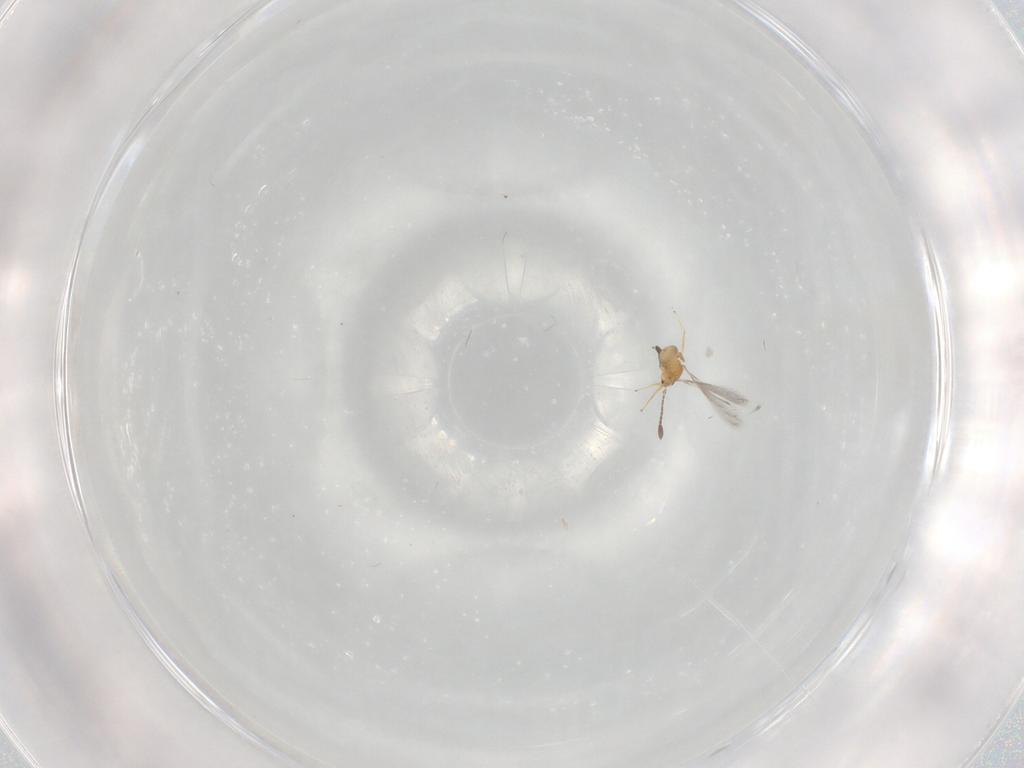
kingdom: Animalia
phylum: Arthropoda
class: Insecta
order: Hymenoptera
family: Mymaridae
